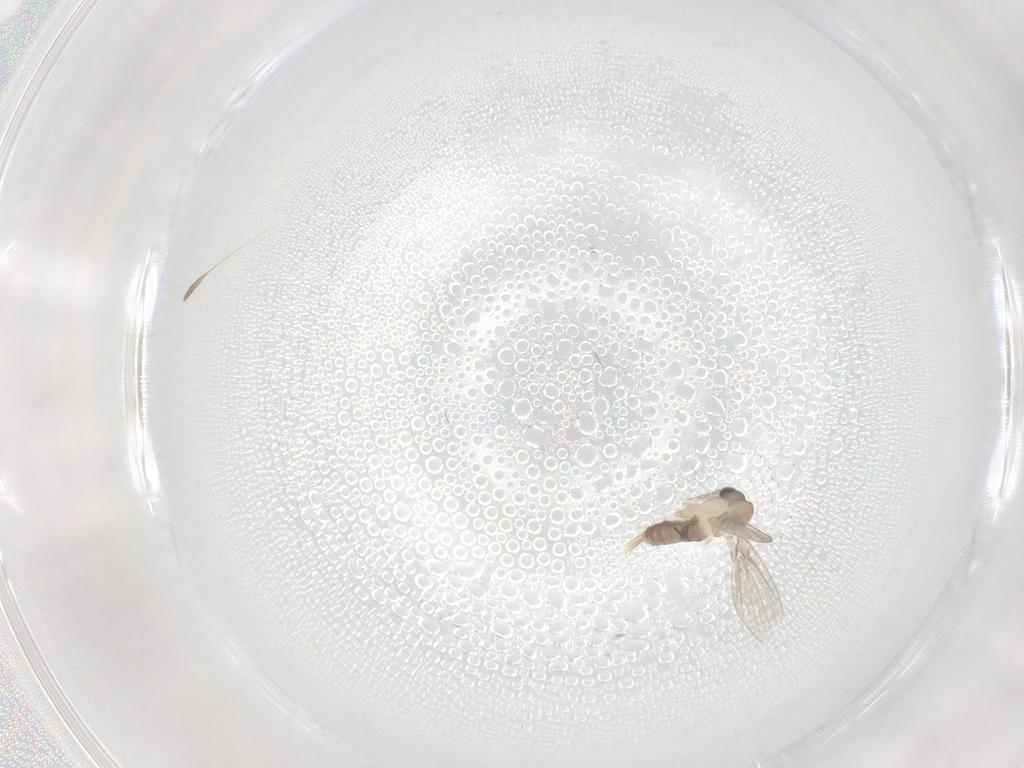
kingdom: Animalia
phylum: Arthropoda
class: Insecta
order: Diptera
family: Psychodidae
